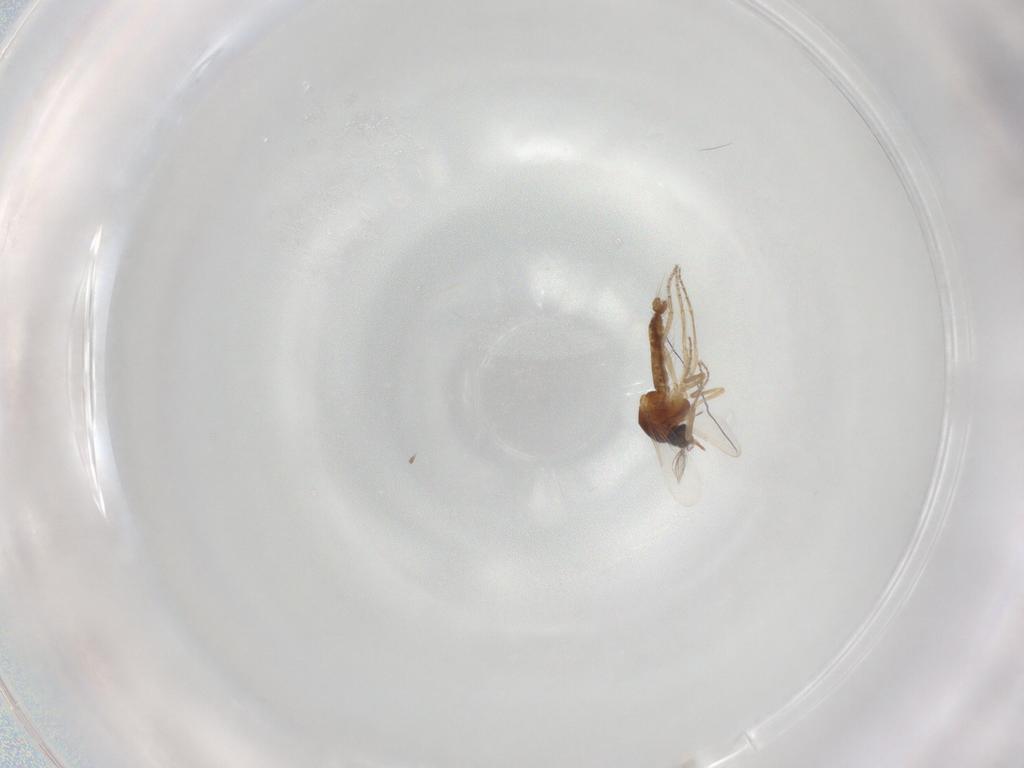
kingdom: Animalia
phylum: Arthropoda
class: Insecta
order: Diptera
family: Ceratopogonidae
